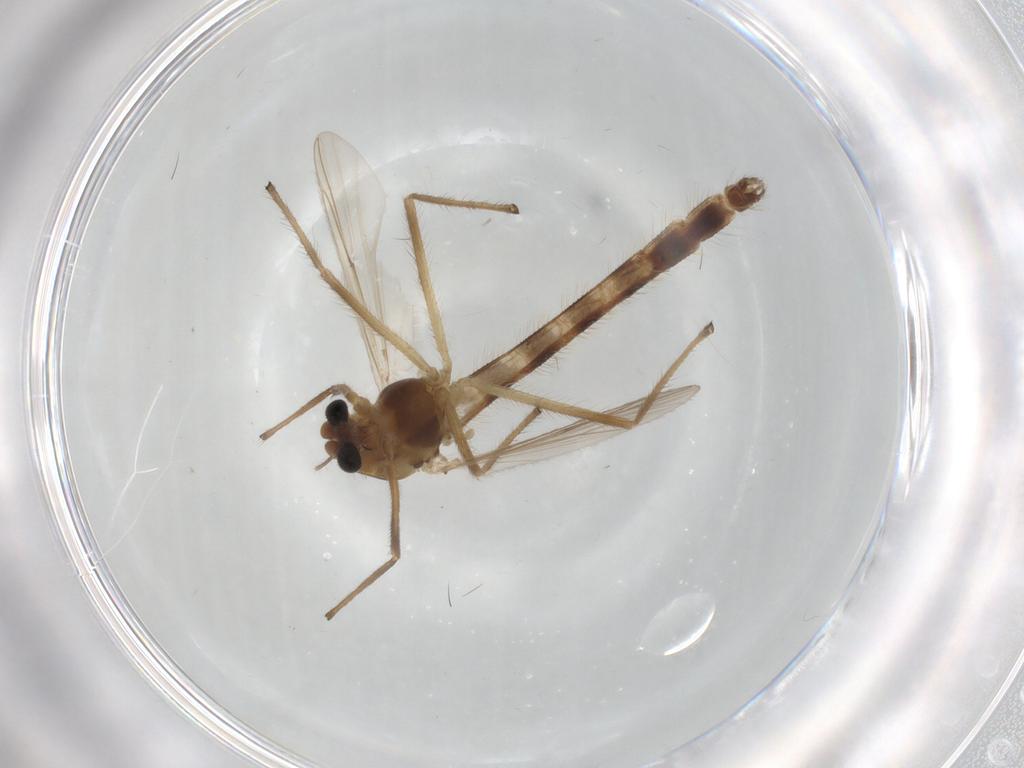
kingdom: Animalia
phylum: Arthropoda
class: Insecta
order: Diptera
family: Chironomidae
